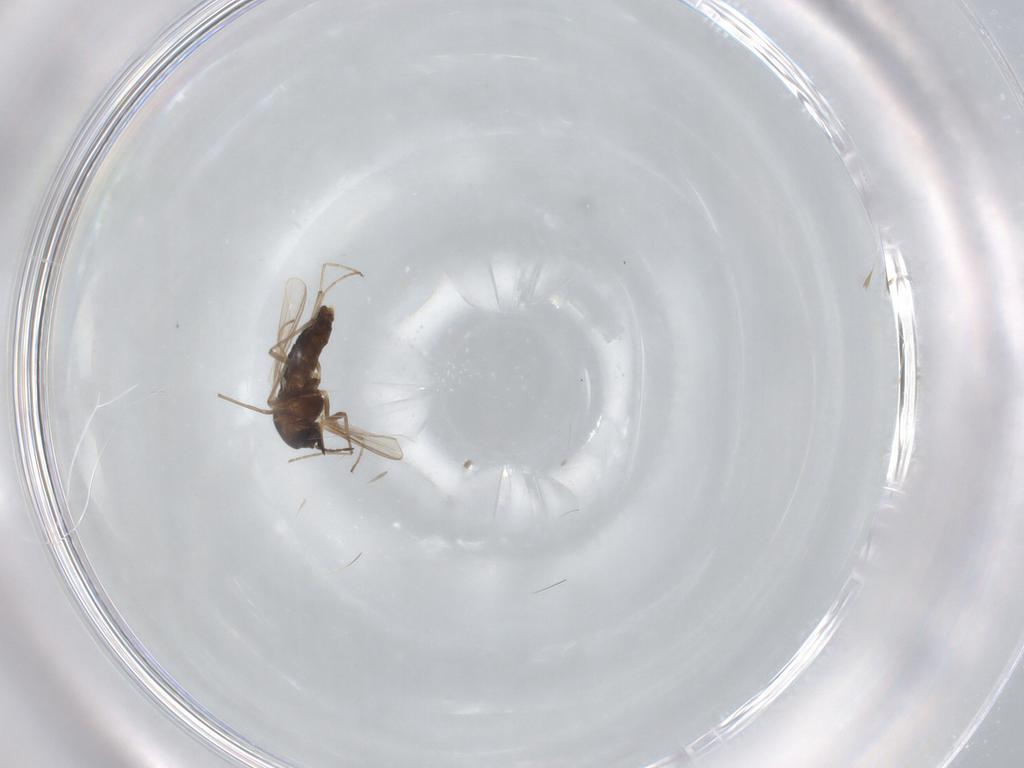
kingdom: Animalia
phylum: Arthropoda
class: Insecta
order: Diptera
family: Chironomidae
